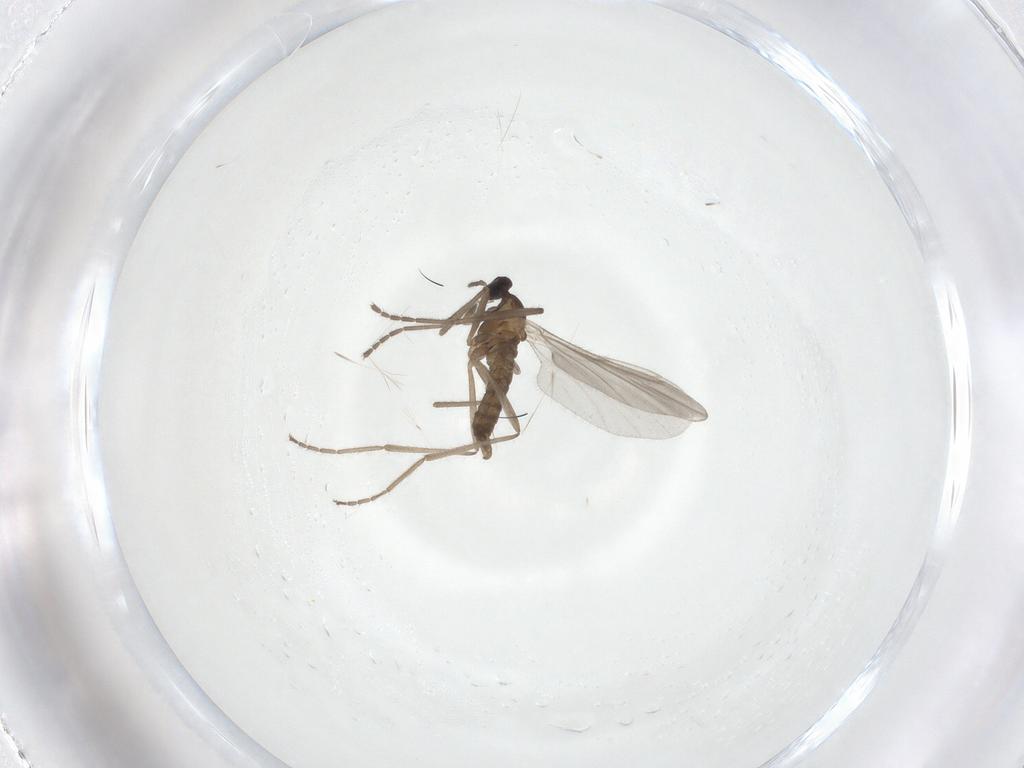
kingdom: Animalia
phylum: Arthropoda
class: Insecta
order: Diptera
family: Cecidomyiidae
